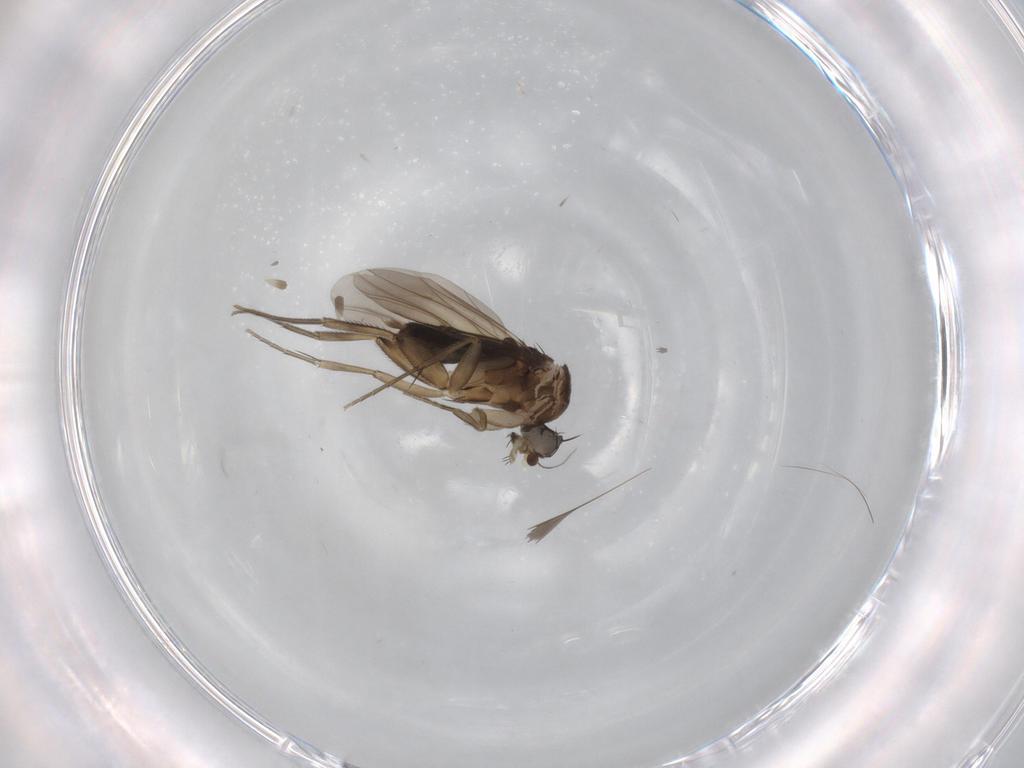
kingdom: Animalia
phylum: Arthropoda
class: Insecta
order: Diptera
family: Phoridae
